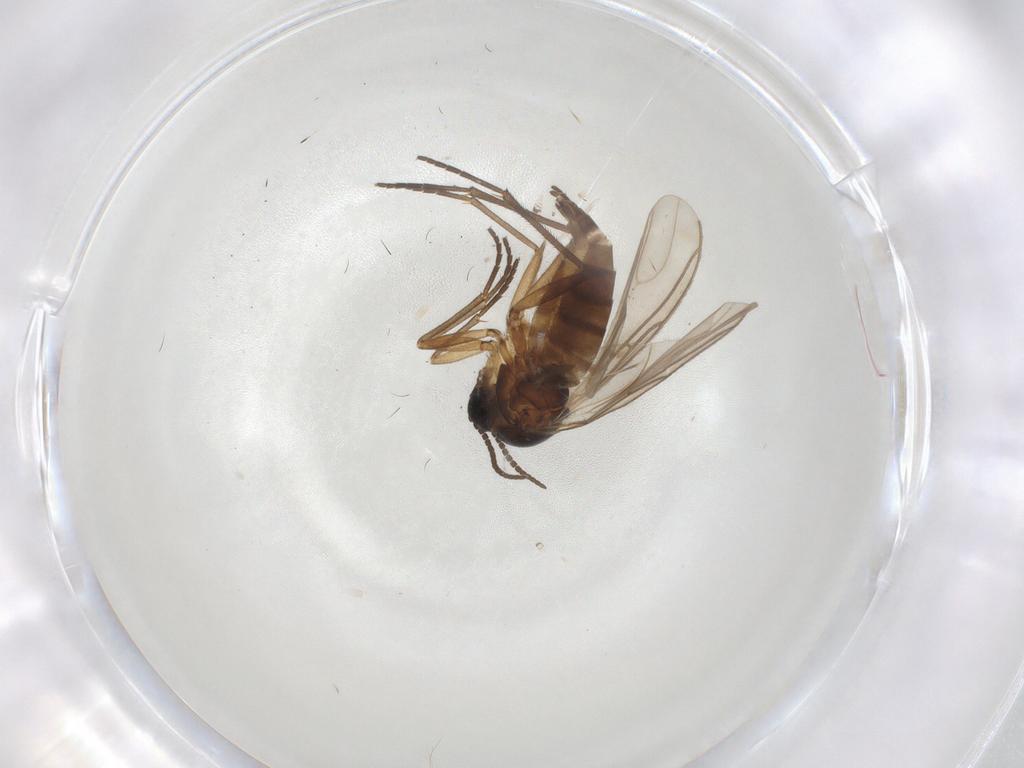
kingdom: Animalia
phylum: Arthropoda
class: Insecta
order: Diptera
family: Sciaridae
